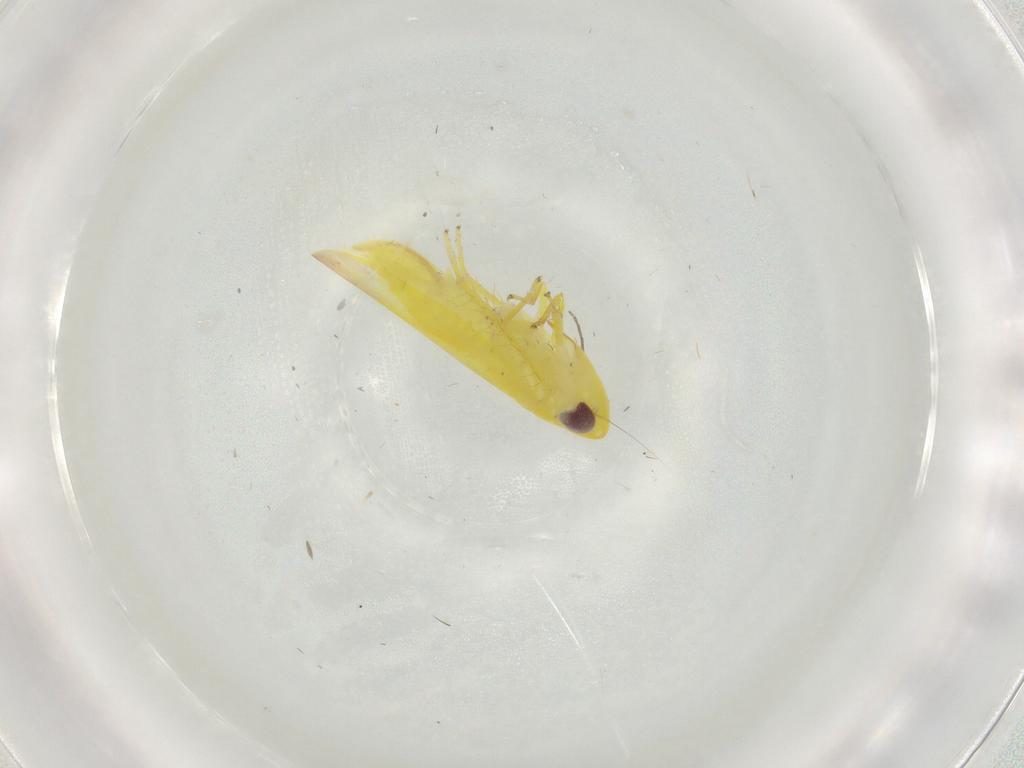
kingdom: Animalia
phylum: Arthropoda
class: Insecta
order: Hemiptera
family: Cicadellidae
